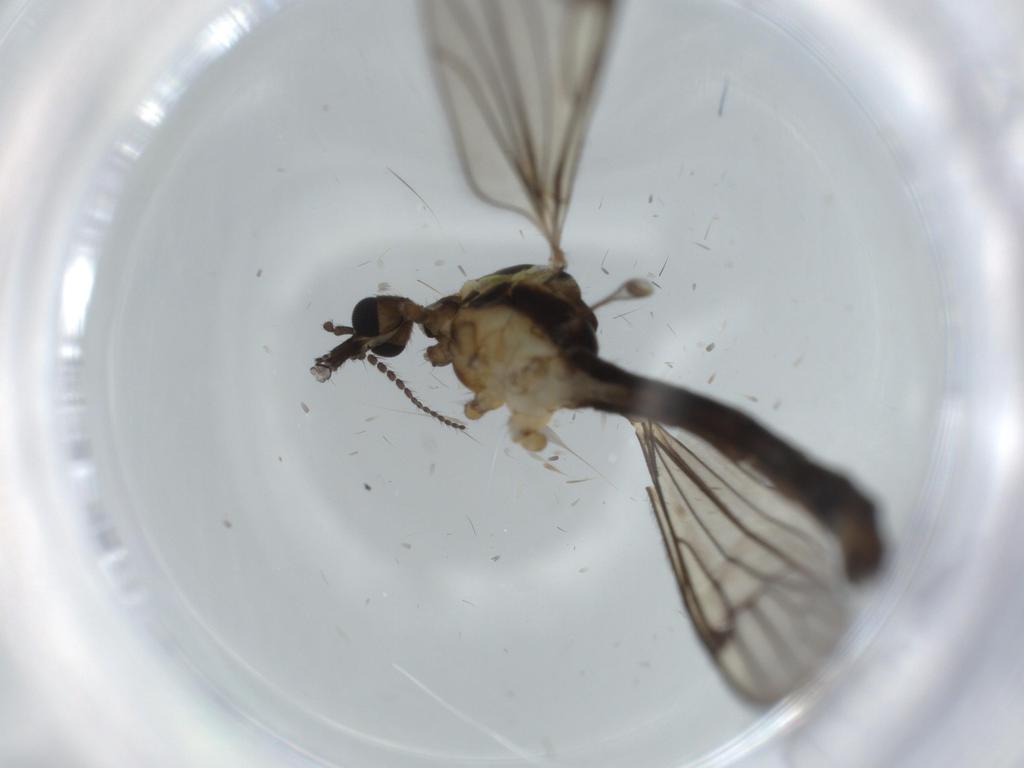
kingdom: Animalia
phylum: Arthropoda
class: Insecta
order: Diptera
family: Limoniidae
